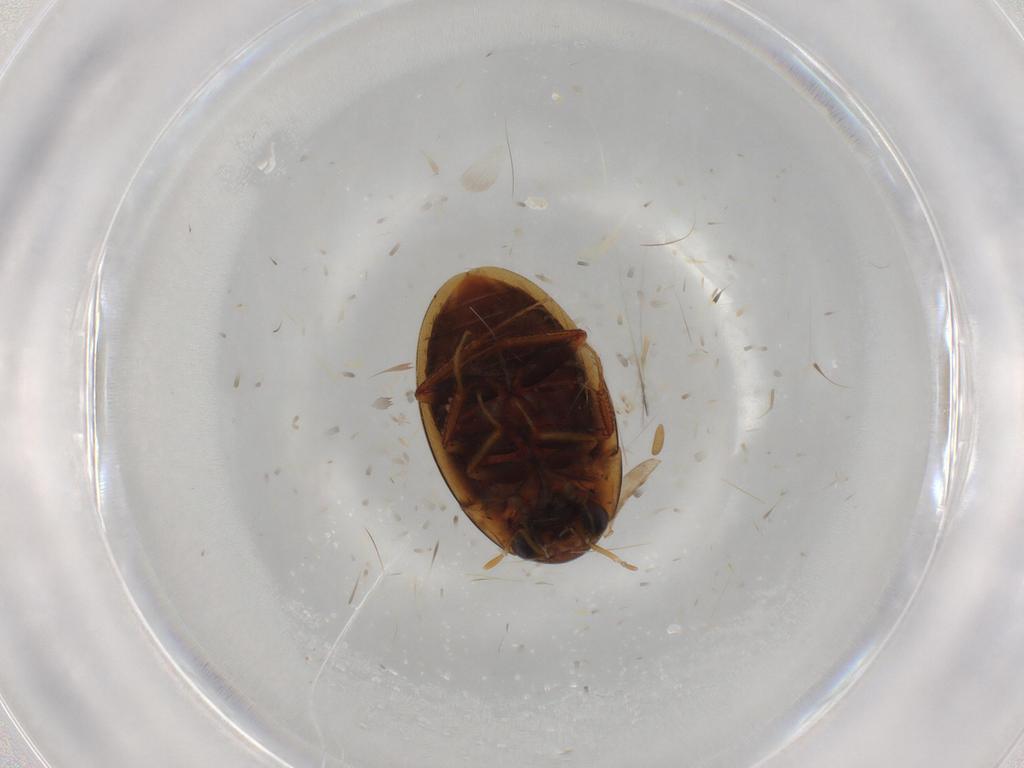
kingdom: Animalia
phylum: Arthropoda
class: Insecta
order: Coleoptera
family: Hydrophilidae
